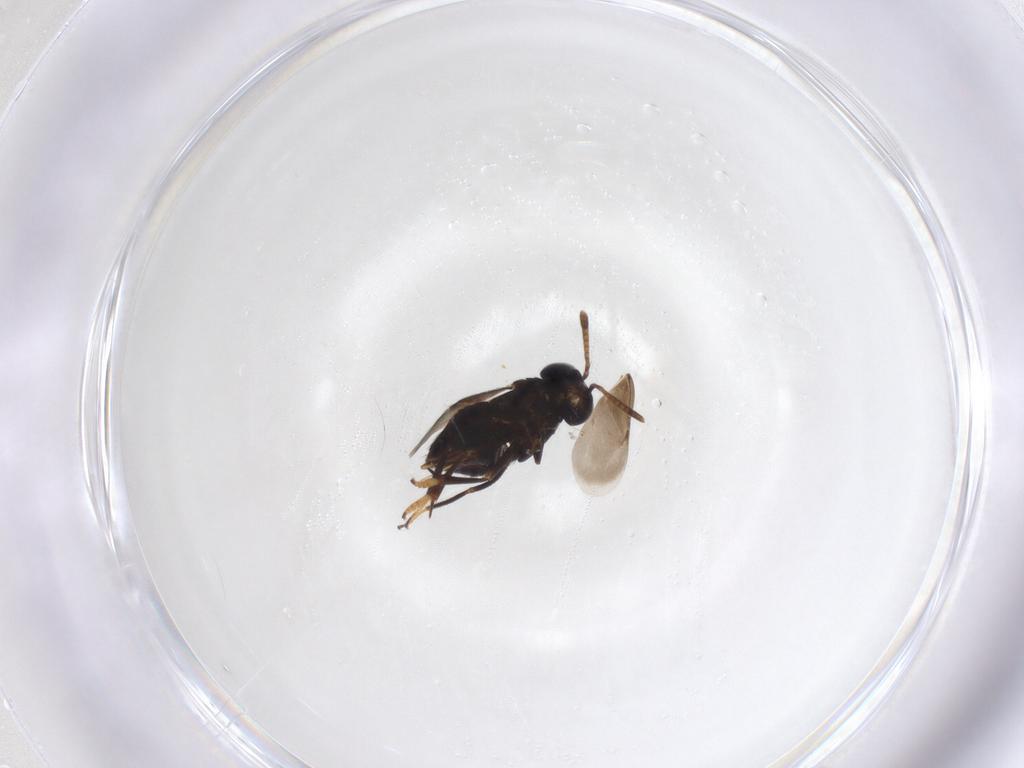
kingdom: Animalia
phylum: Arthropoda
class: Insecta
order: Hymenoptera
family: Encyrtidae
